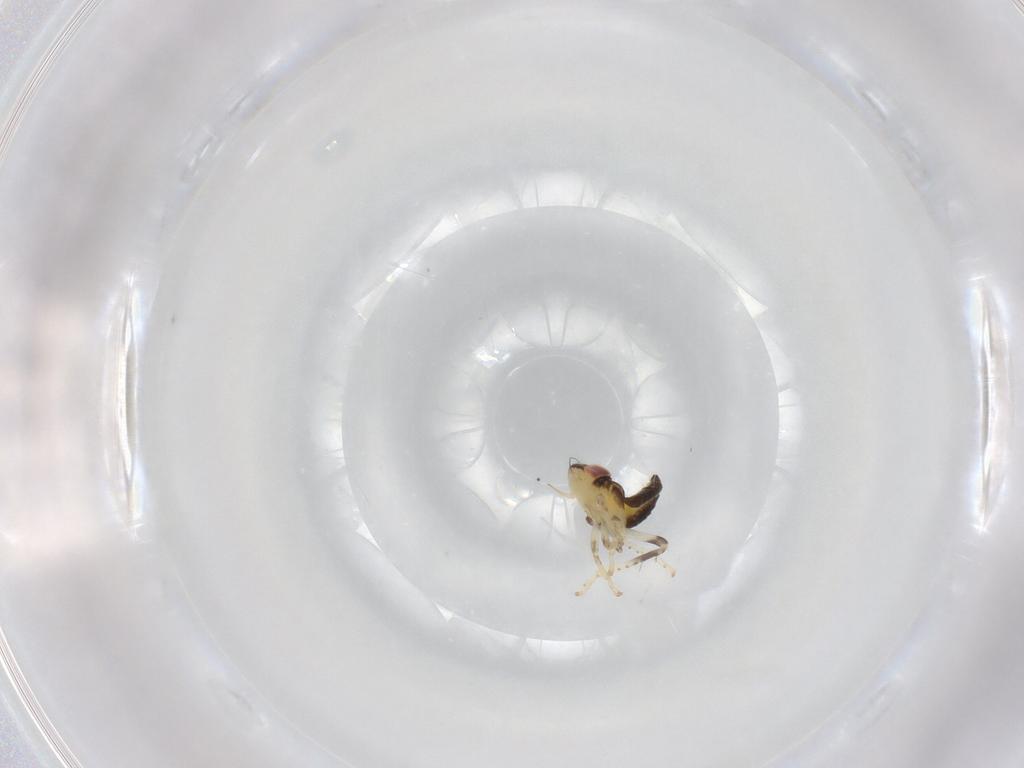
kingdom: Animalia
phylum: Arthropoda
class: Insecta
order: Hemiptera
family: Cicadellidae
